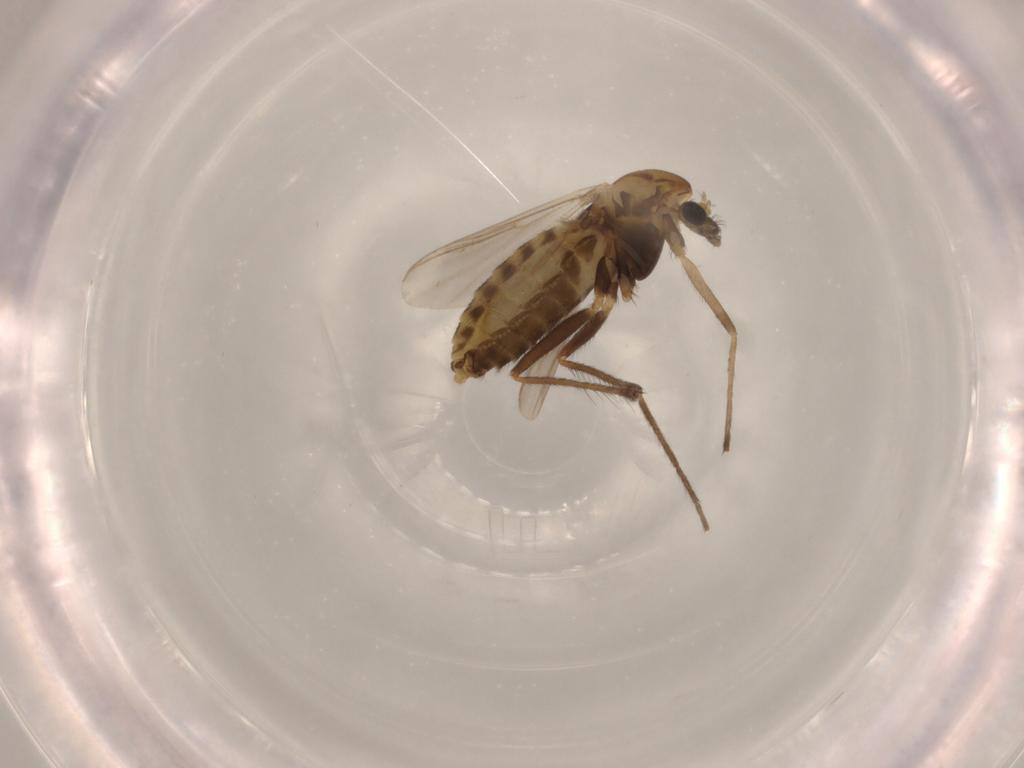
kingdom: Animalia
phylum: Arthropoda
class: Insecta
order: Diptera
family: Chironomidae
